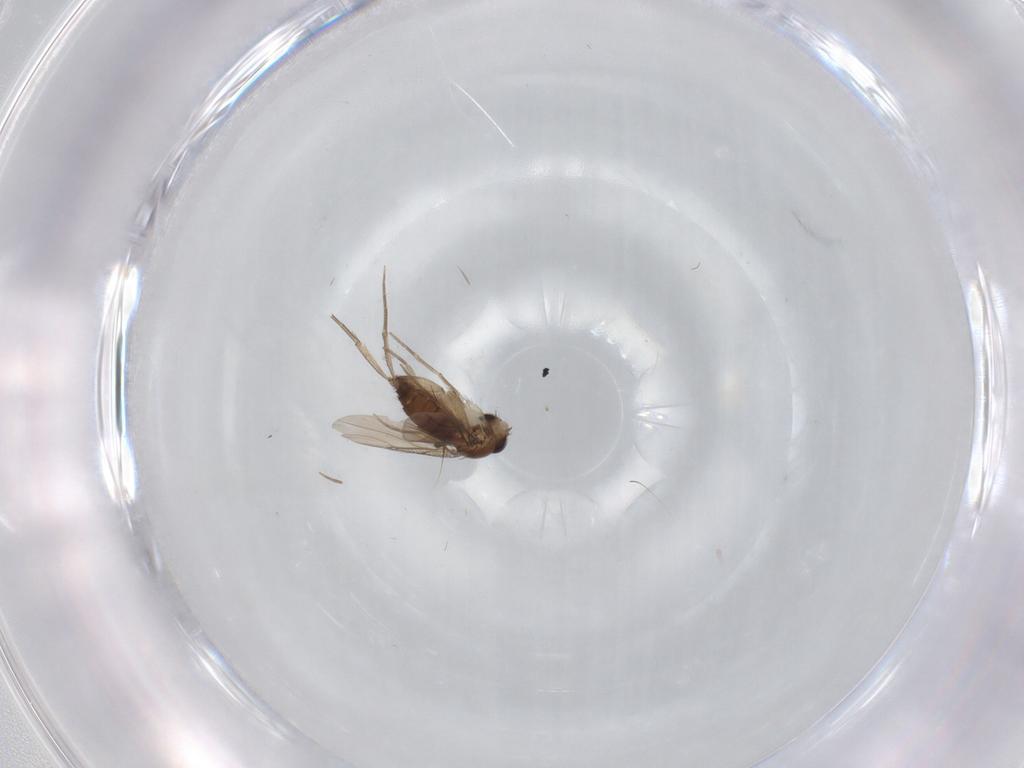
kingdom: Animalia
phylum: Arthropoda
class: Insecta
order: Diptera
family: Phoridae
